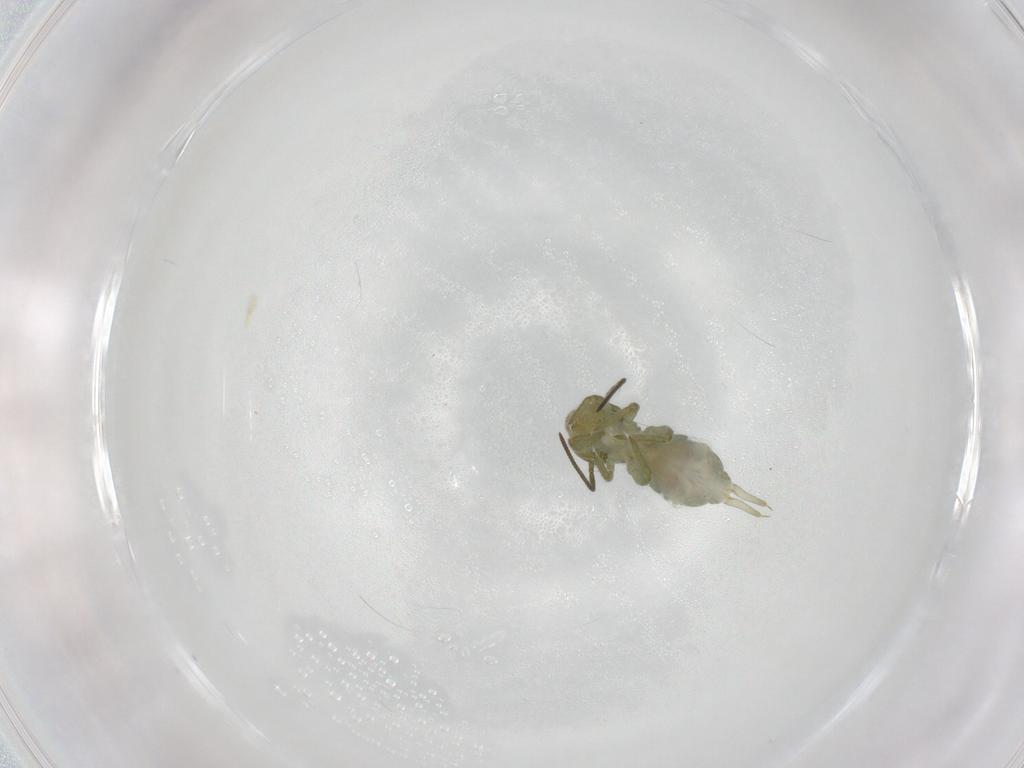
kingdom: Animalia
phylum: Arthropoda
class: Collembola
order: Symphypleona
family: Sminthuridae
